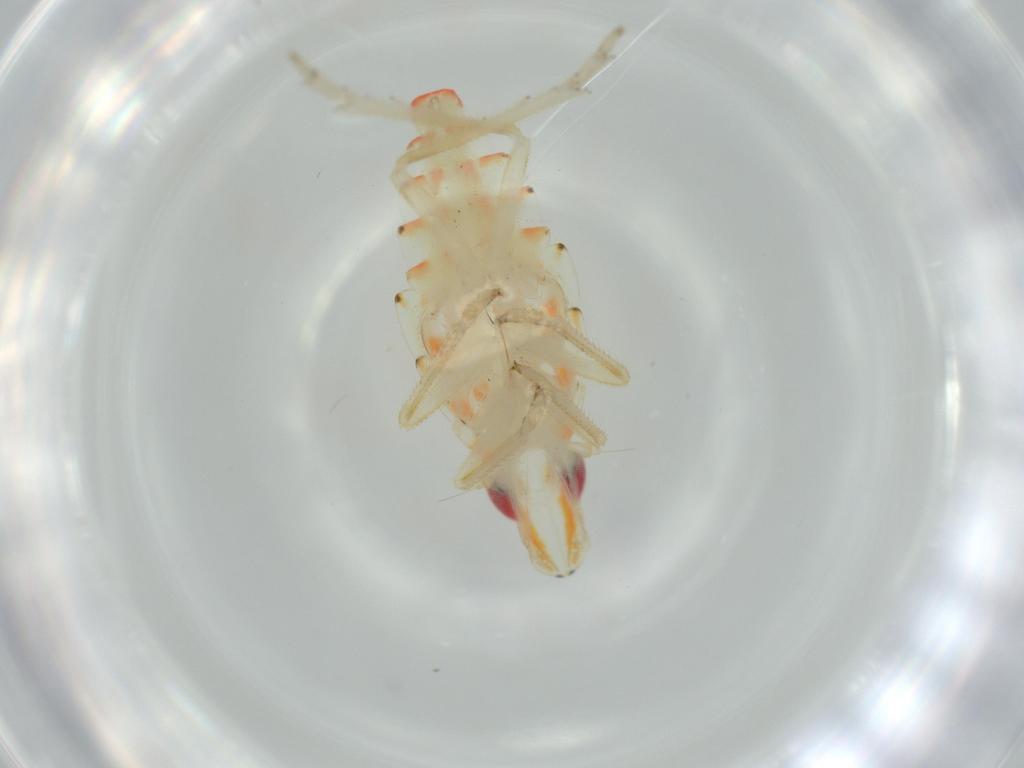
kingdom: Animalia
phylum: Arthropoda
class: Insecta
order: Hemiptera
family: Tropiduchidae
